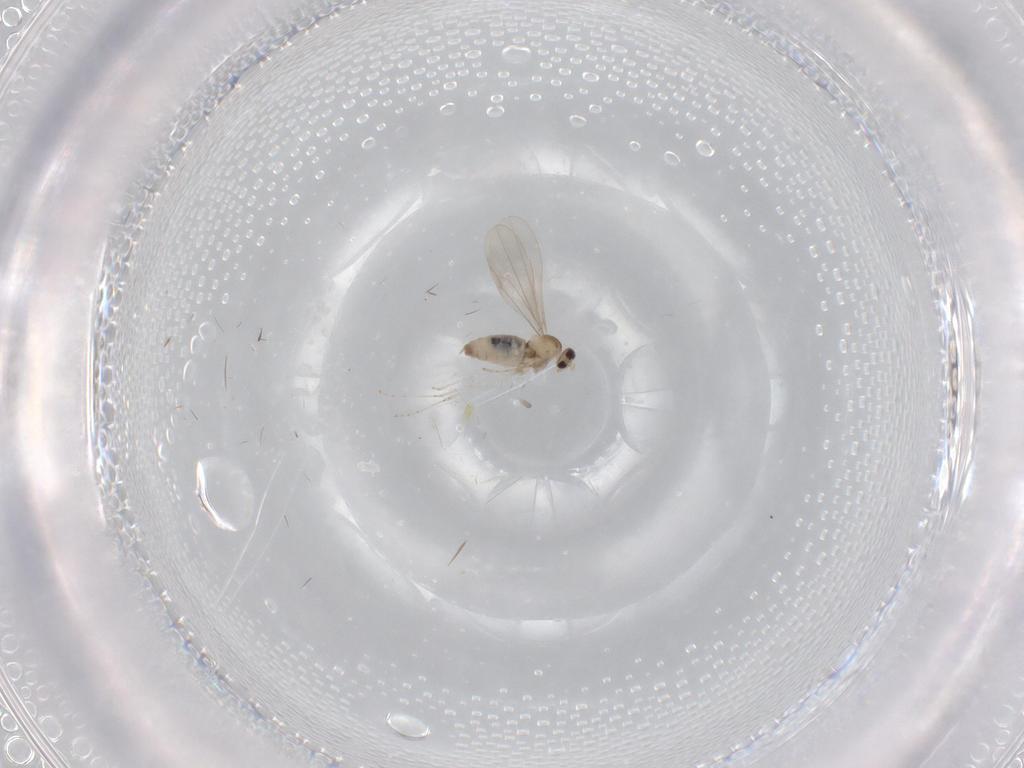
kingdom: Animalia
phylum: Arthropoda
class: Insecta
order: Diptera
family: Cecidomyiidae
